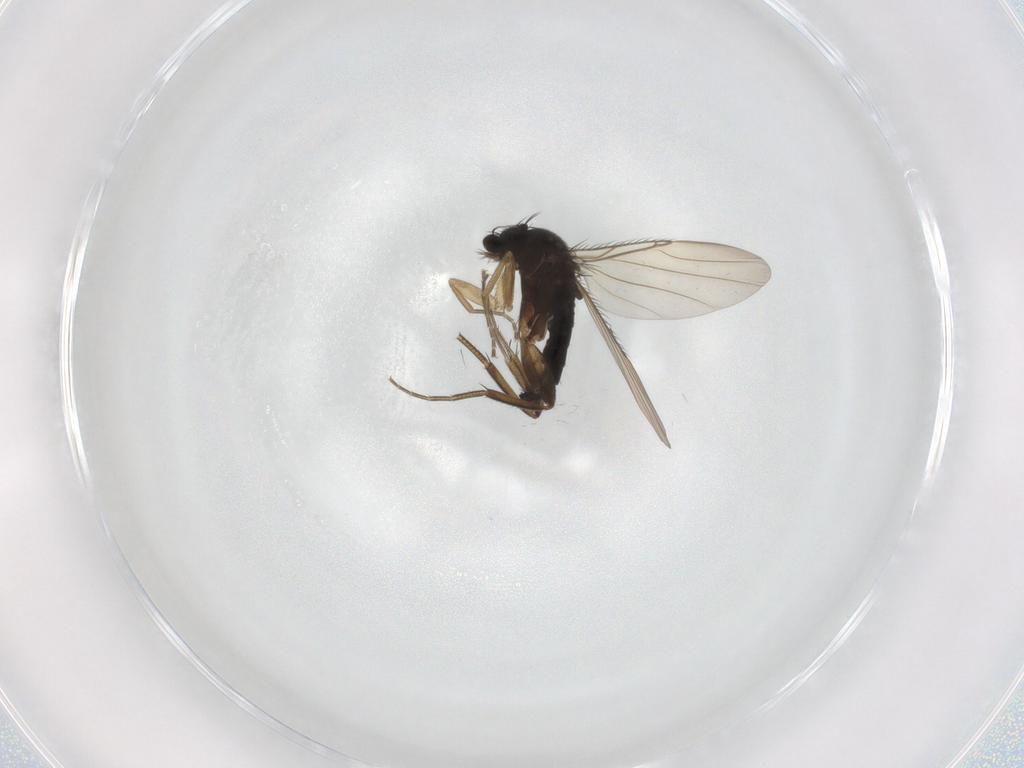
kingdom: Animalia
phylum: Arthropoda
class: Insecta
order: Diptera
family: Phoridae
